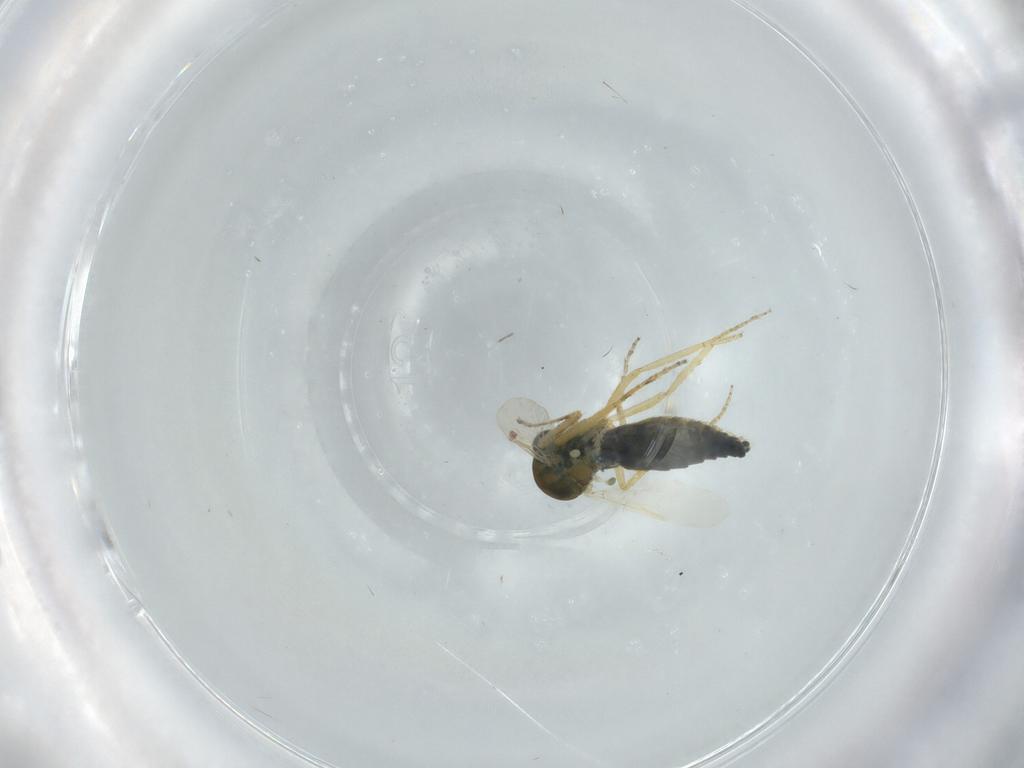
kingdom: Animalia
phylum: Arthropoda
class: Insecta
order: Diptera
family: Ceratopogonidae
